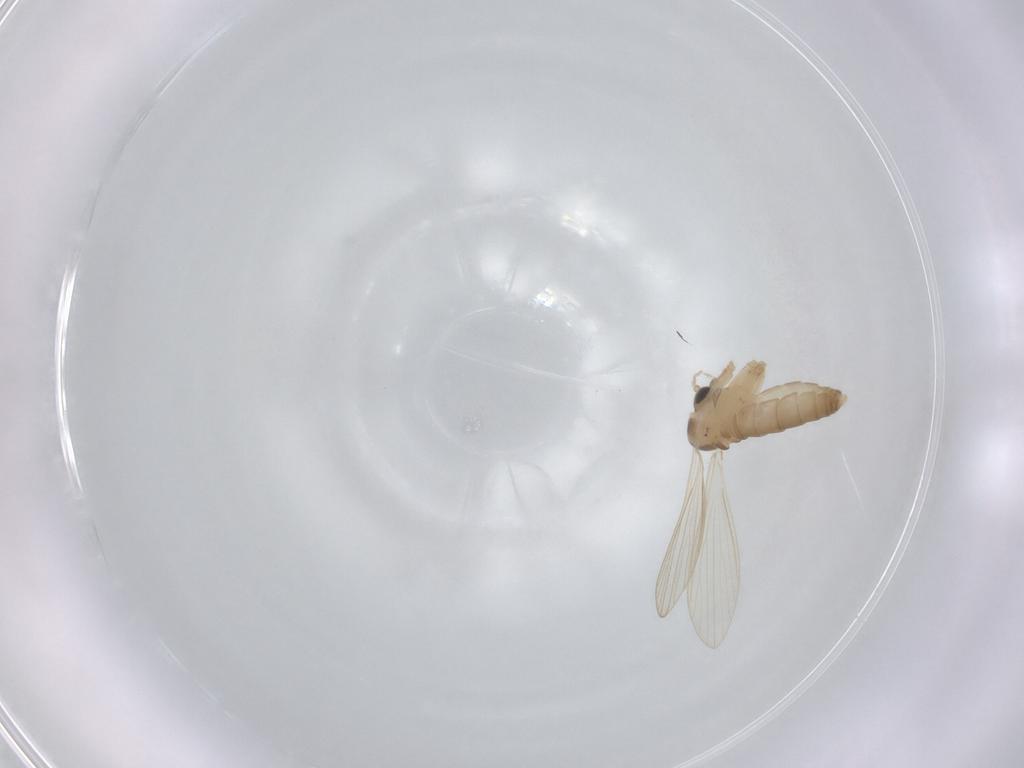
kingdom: Animalia
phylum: Arthropoda
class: Insecta
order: Diptera
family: Psychodidae
